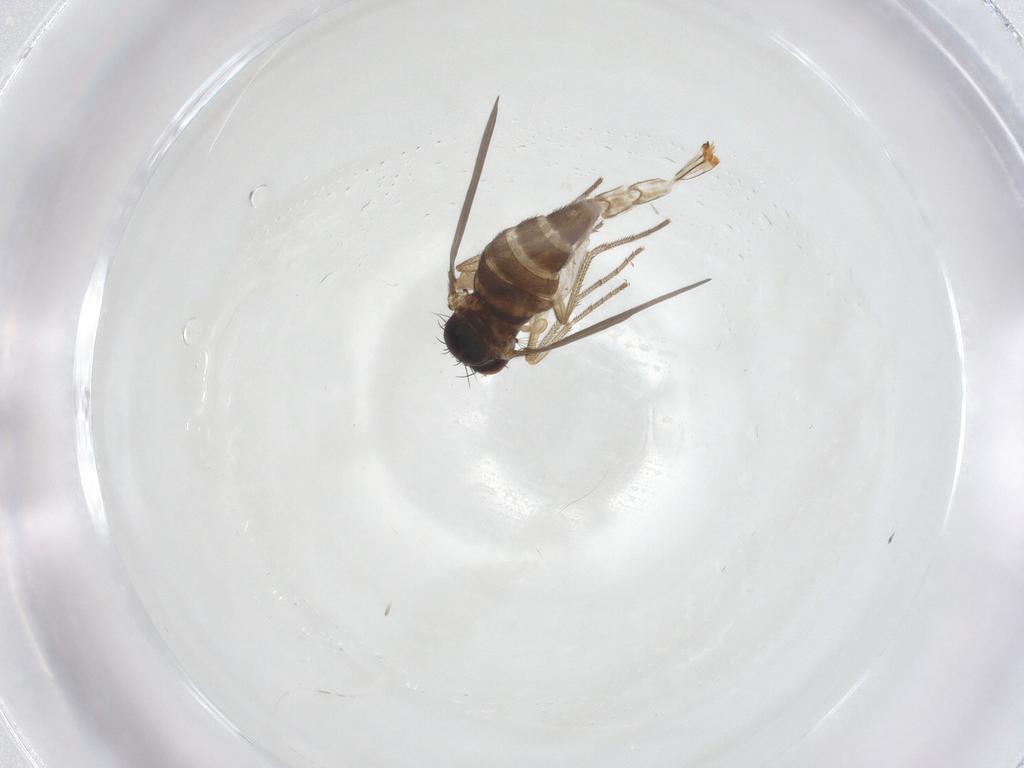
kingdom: Animalia
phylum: Arthropoda
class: Insecta
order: Diptera
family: Dolichopodidae
